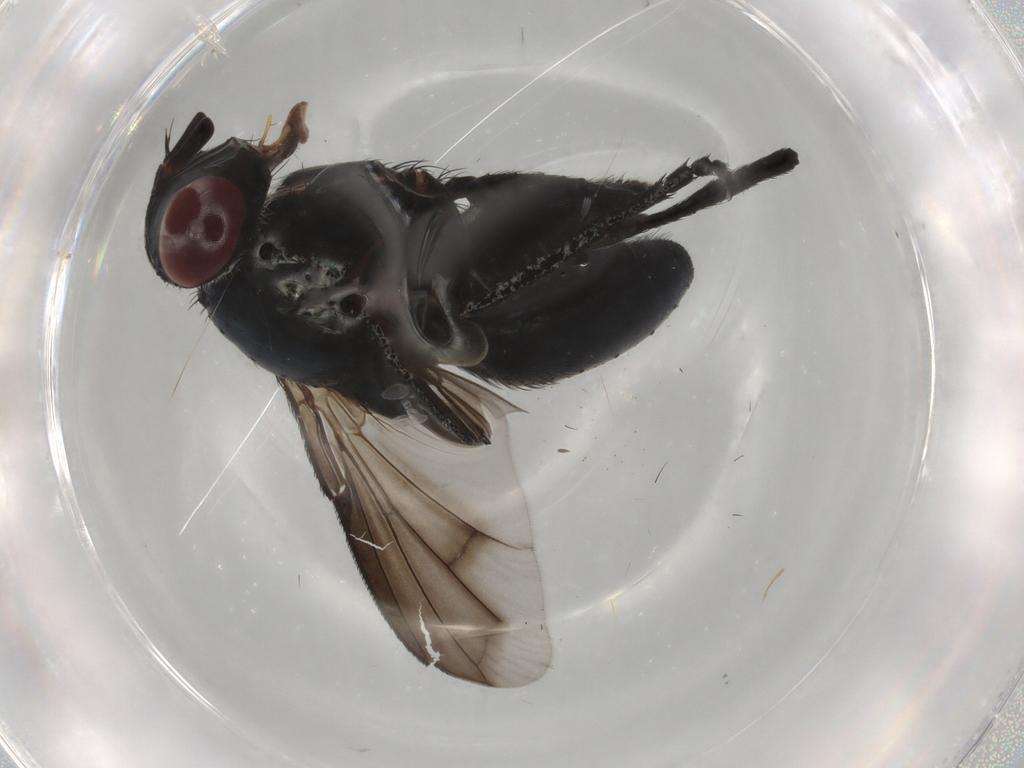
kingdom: Animalia
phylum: Arthropoda
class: Insecta
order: Diptera
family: Tachinidae
